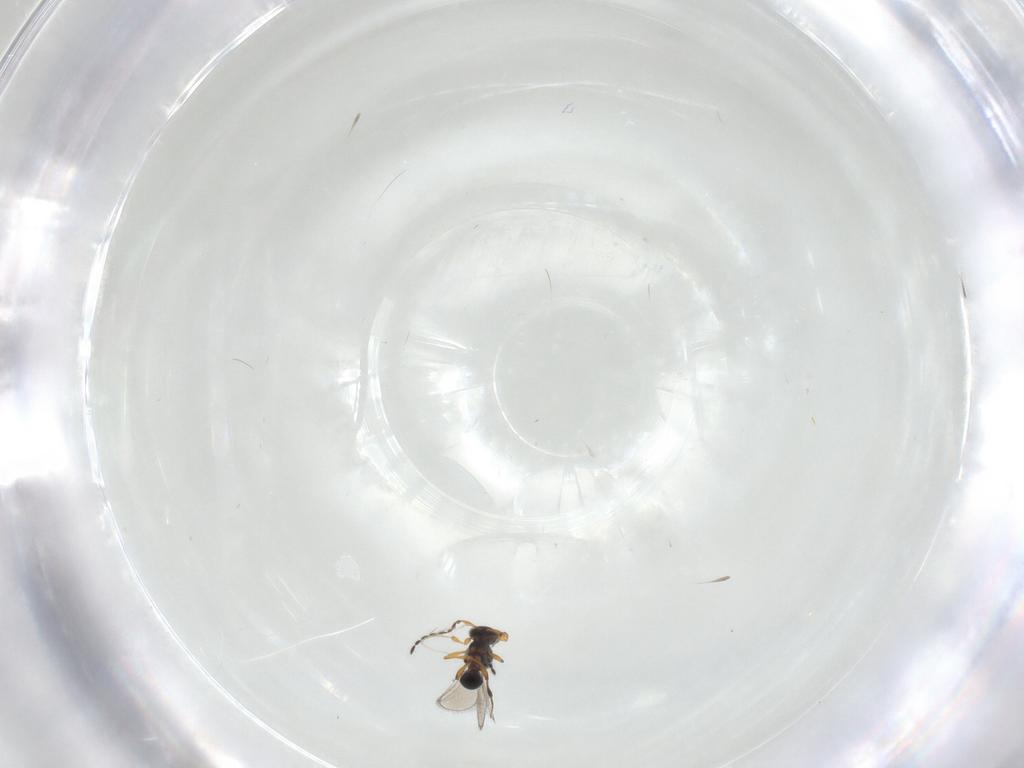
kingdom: Animalia
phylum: Arthropoda
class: Insecta
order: Hymenoptera
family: Platygastridae
